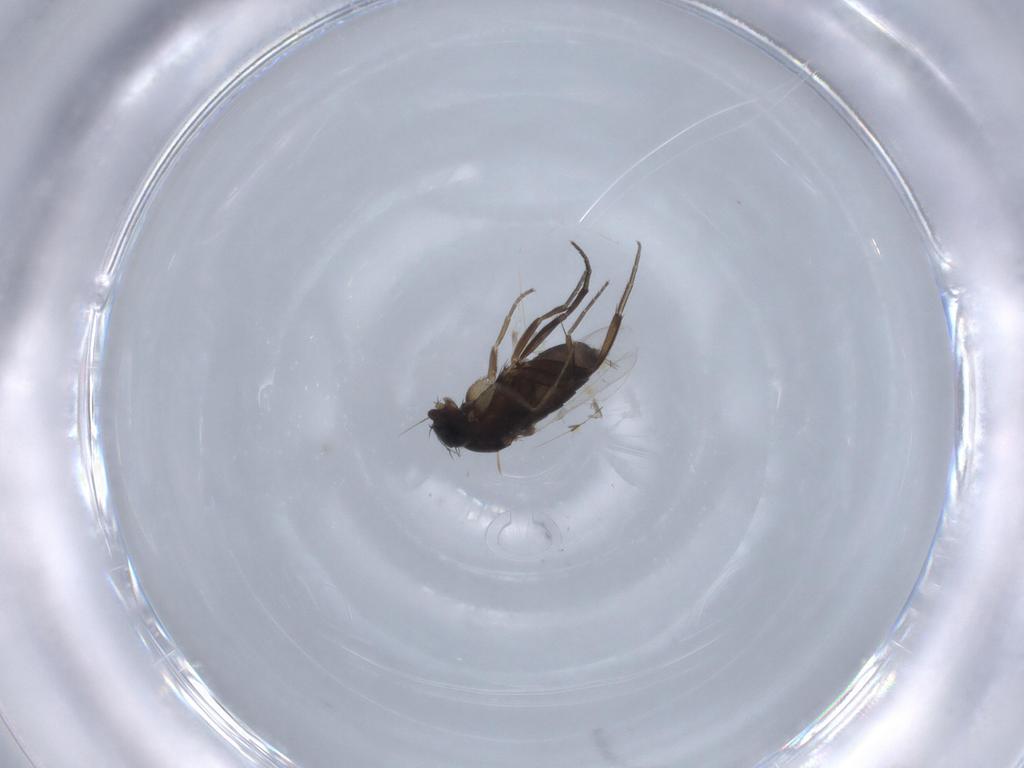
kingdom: Animalia
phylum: Arthropoda
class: Insecta
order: Diptera
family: Phoridae
